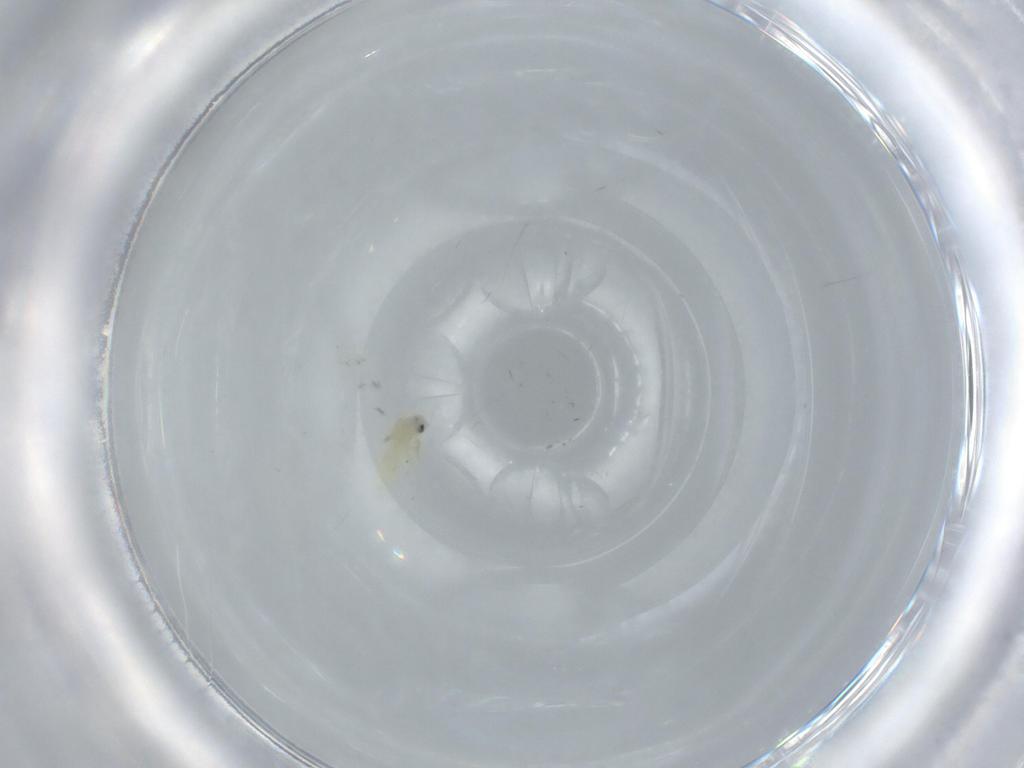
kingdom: Animalia
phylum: Arthropoda
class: Insecta
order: Hemiptera
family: Aleyrodidae
